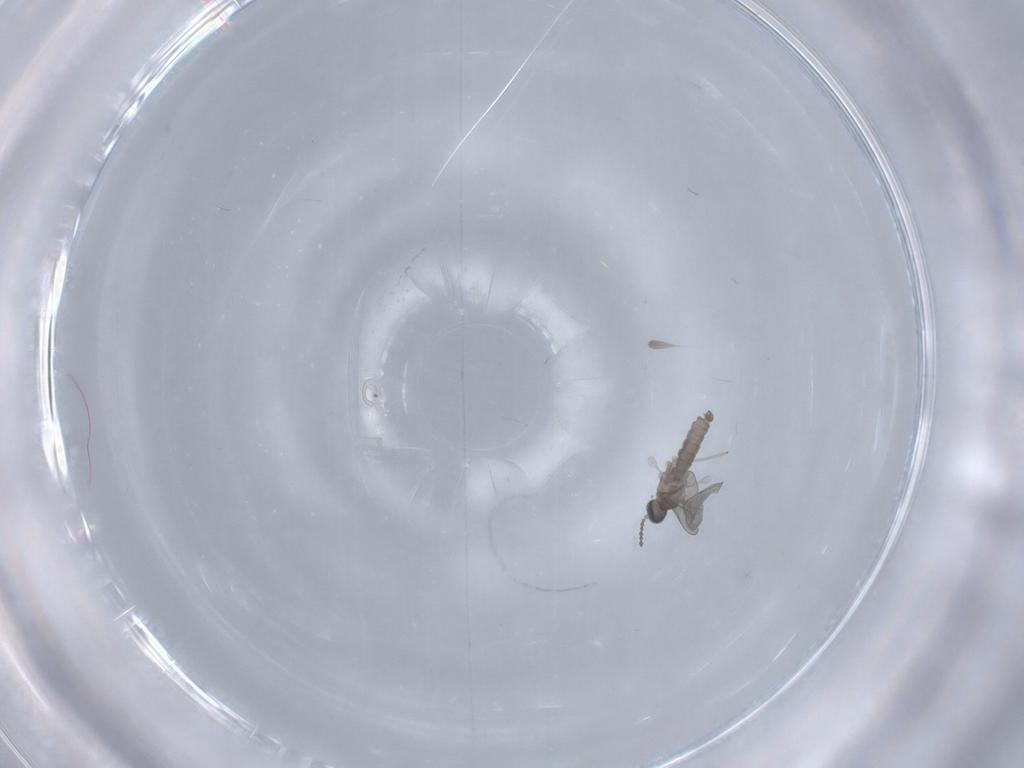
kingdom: Animalia
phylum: Arthropoda
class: Insecta
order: Diptera
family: Cecidomyiidae
